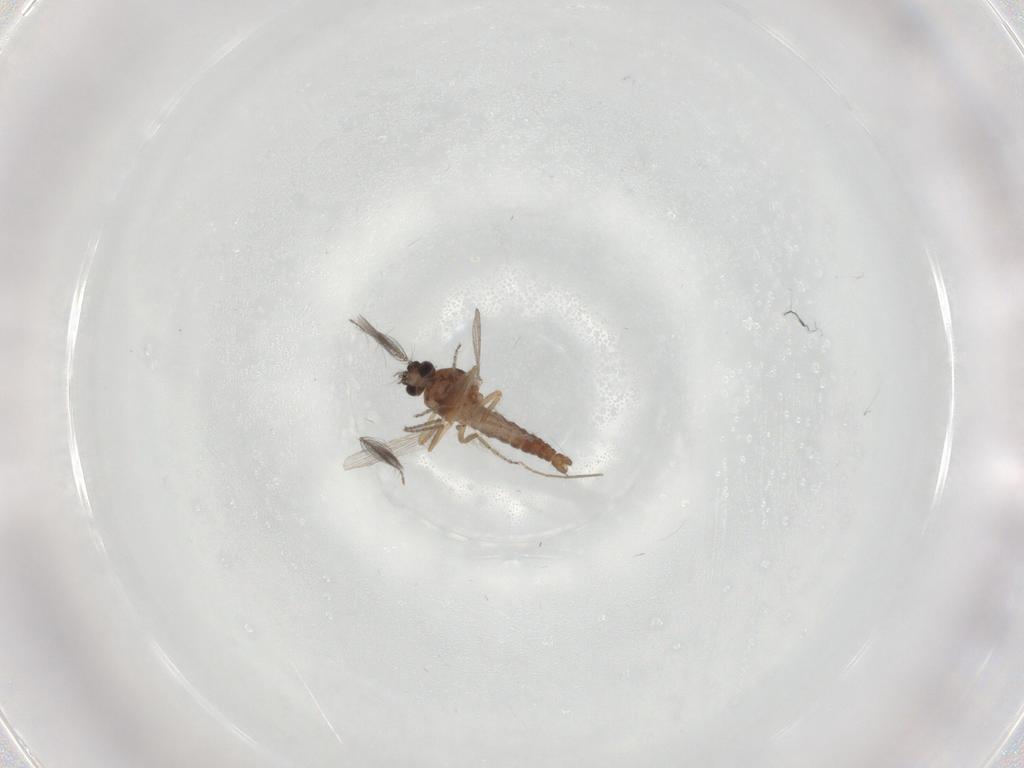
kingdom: Animalia
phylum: Arthropoda
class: Insecta
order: Diptera
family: Ceratopogonidae
